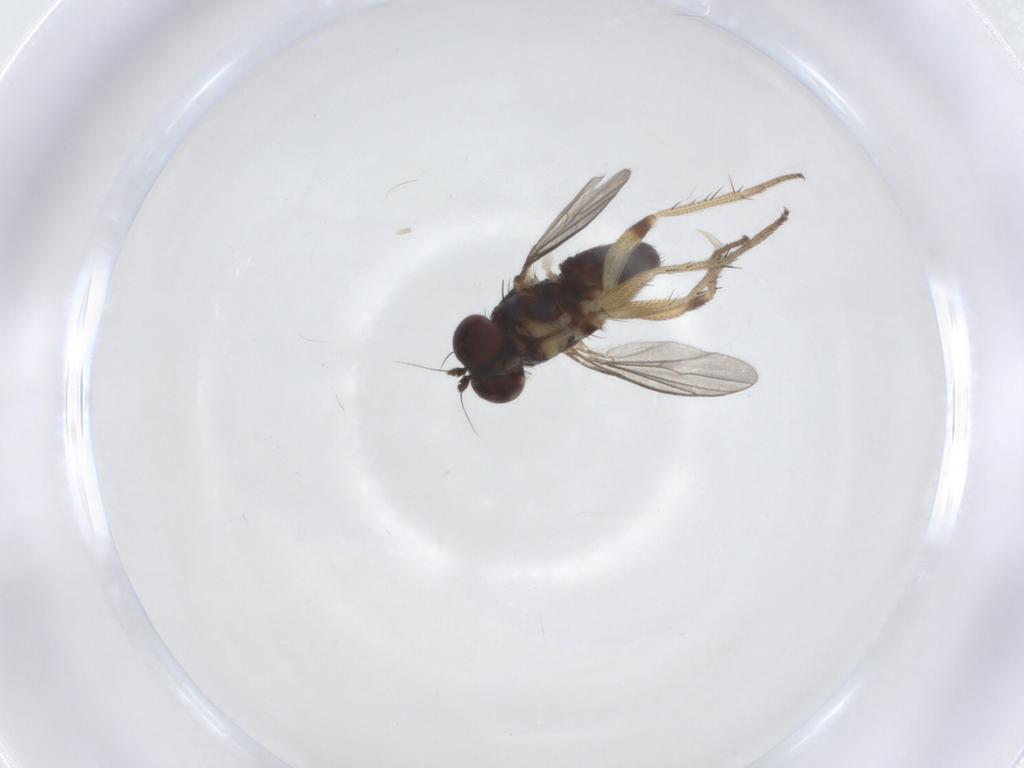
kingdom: Animalia
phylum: Arthropoda
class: Insecta
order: Diptera
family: Dolichopodidae
